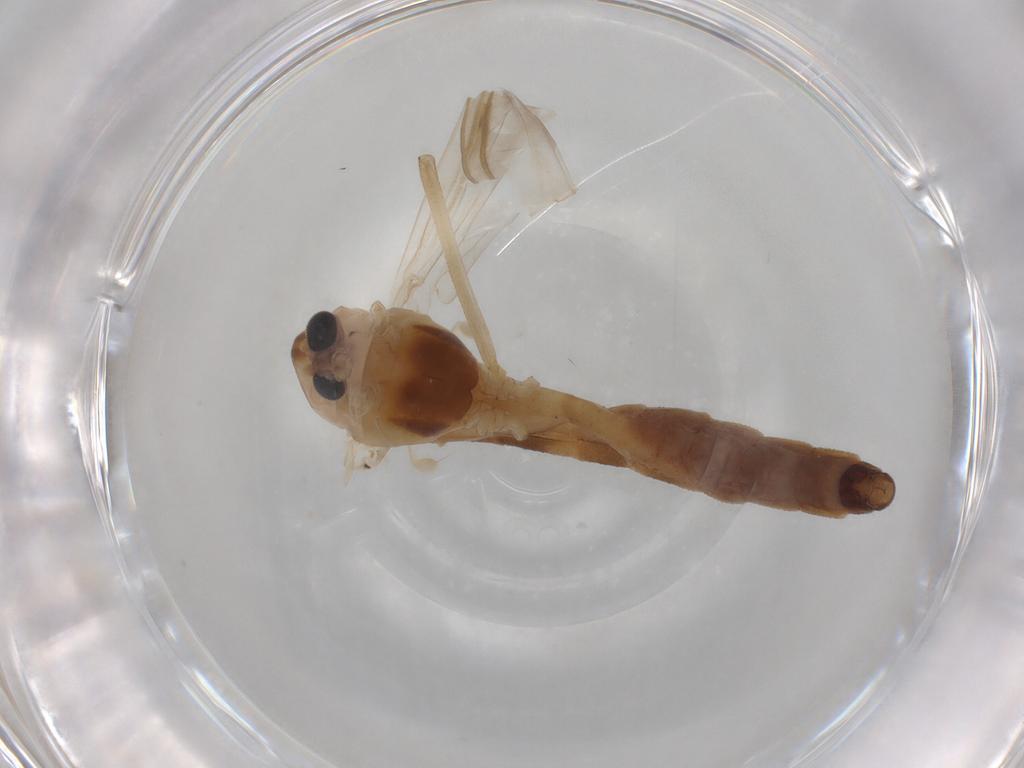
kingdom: Animalia
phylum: Arthropoda
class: Insecta
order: Diptera
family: Chironomidae
